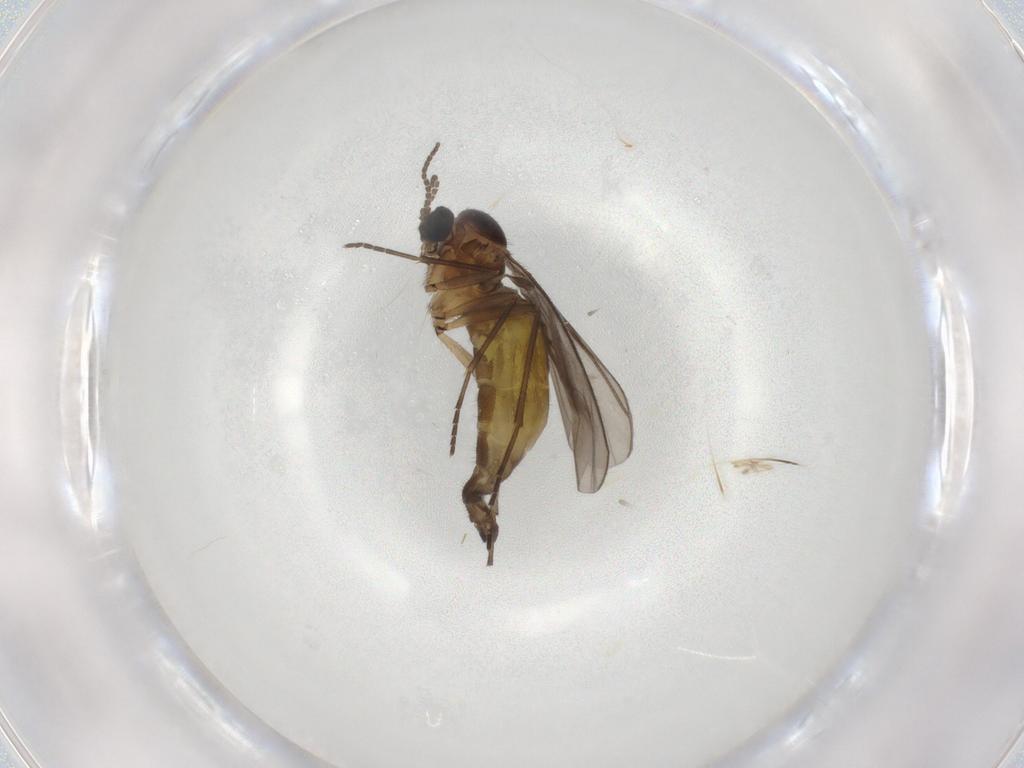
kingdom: Animalia
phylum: Arthropoda
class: Insecta
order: Diptera
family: Sciaridae
